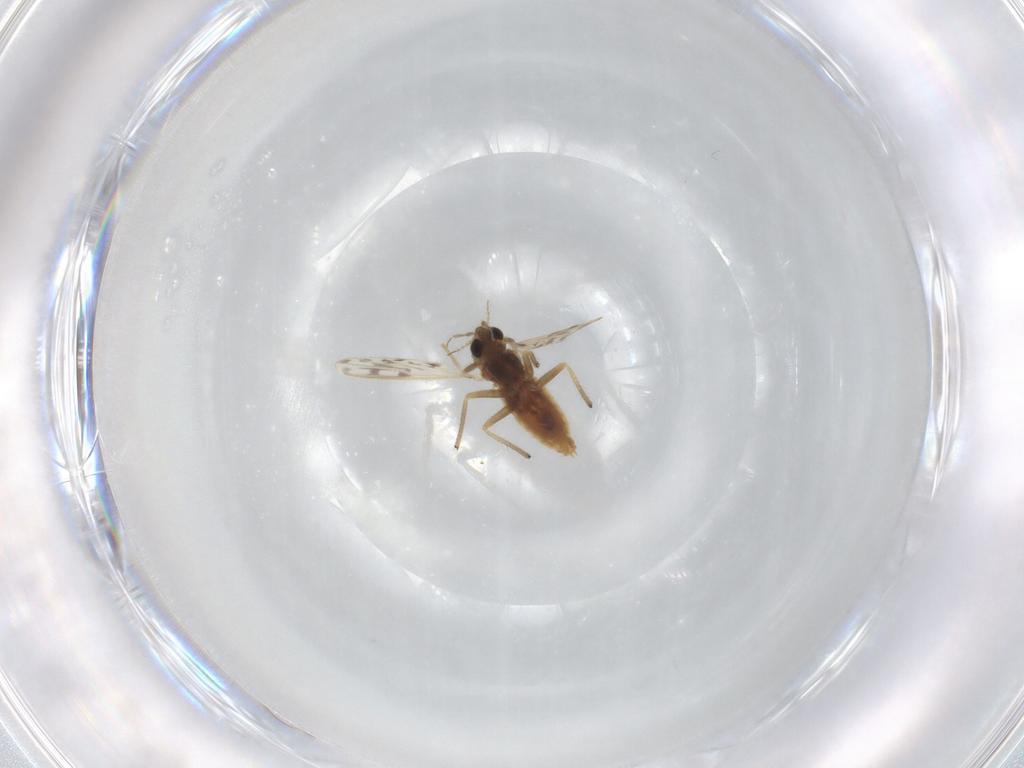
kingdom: Animalia
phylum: Arthropoda
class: Insecta
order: Diptera
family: Chironomidae
